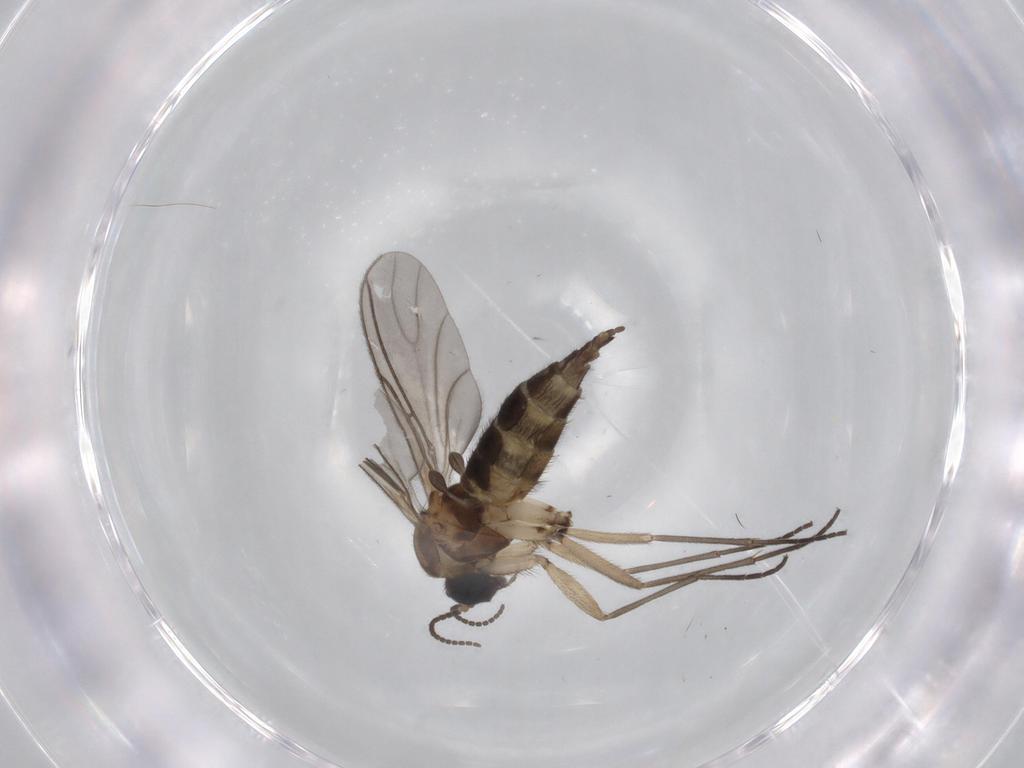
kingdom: Animalia
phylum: Arthropoda
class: Insecta
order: Diptera
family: Sciaridae
